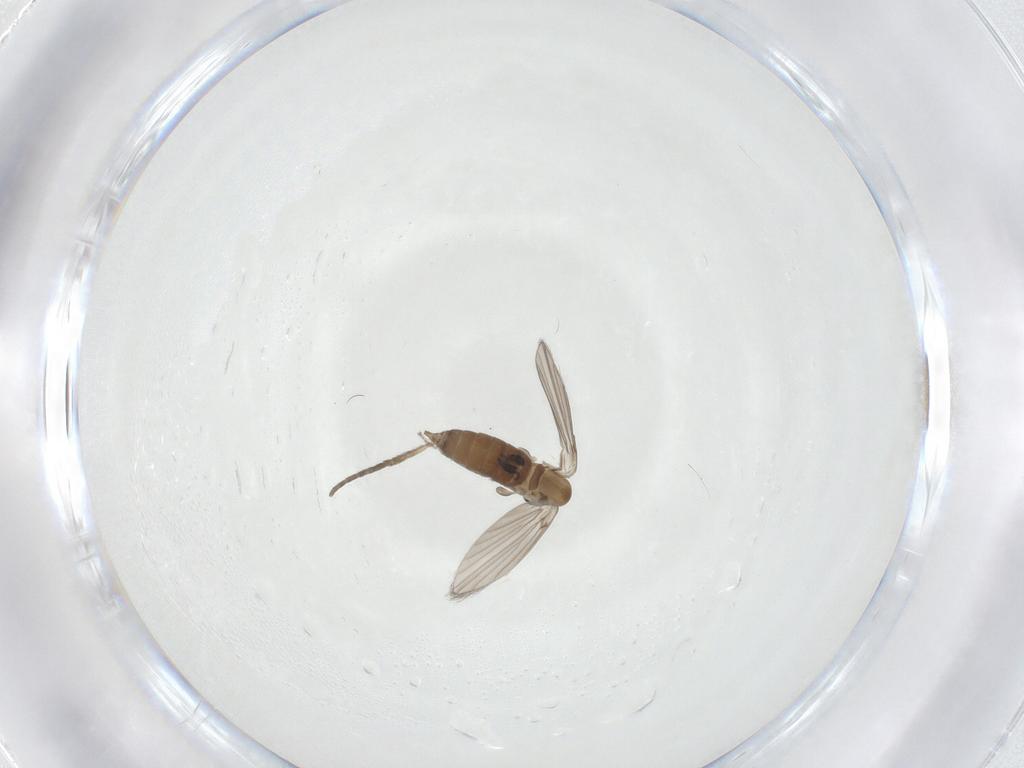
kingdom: Animalia
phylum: Arthropoda
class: Insecta
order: Diptera
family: Psychodidae
